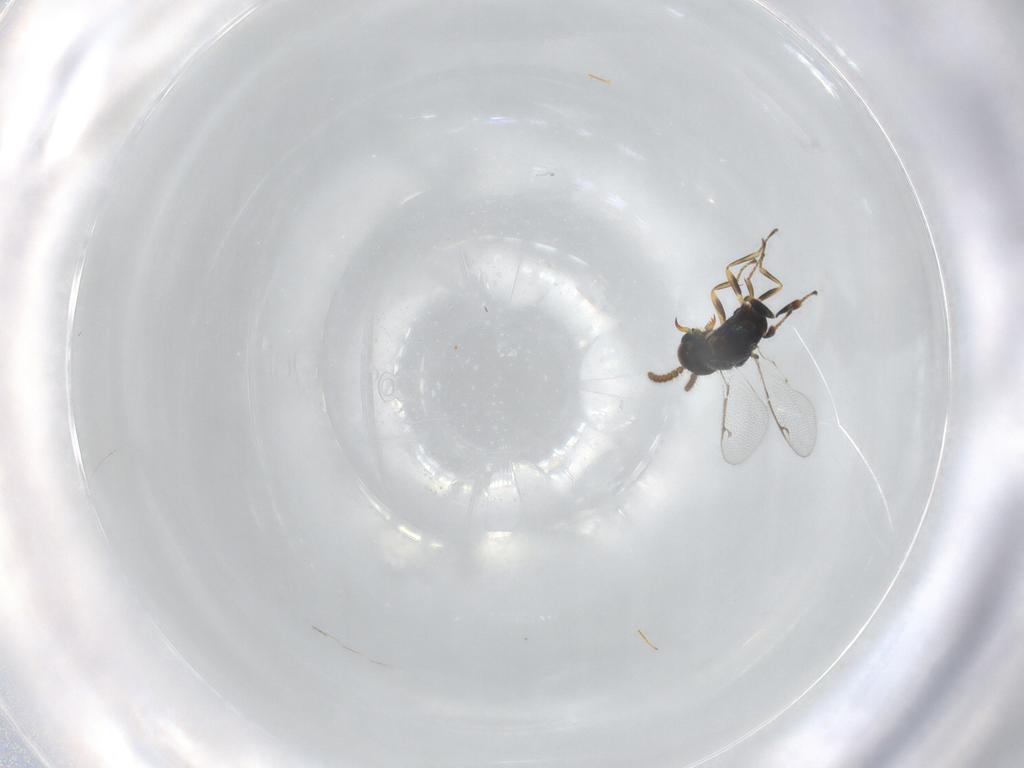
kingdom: Animalia
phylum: Arthropoda
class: Insecta
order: Hymenoptera
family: Pirenidae
